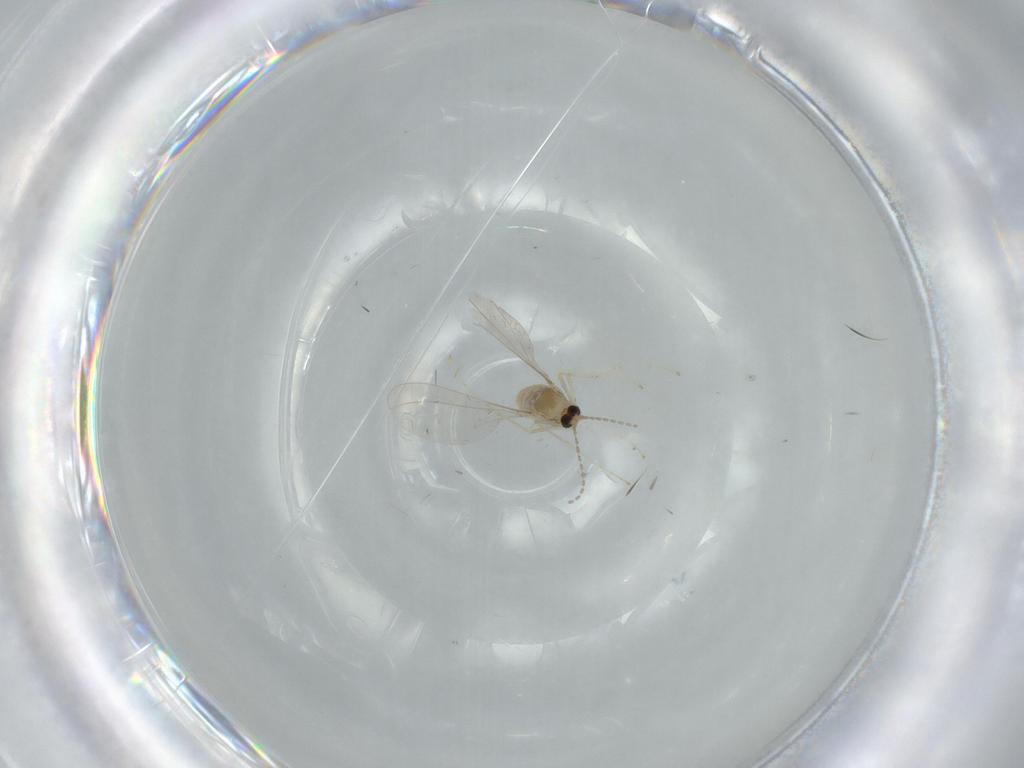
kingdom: Animalia
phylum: Arthropoda
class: Insecta
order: Diptera
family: Cecidomyiidae
